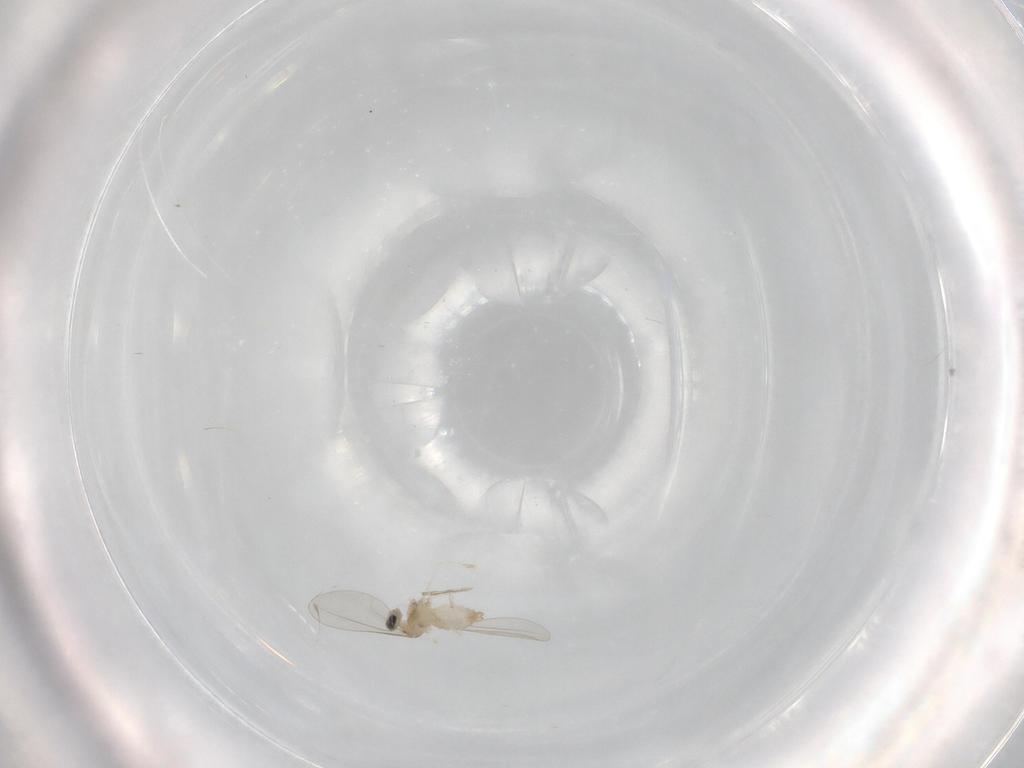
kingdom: Animalia
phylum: Arthropoda
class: Insecta
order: Diptera
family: Cecidomyiidae
